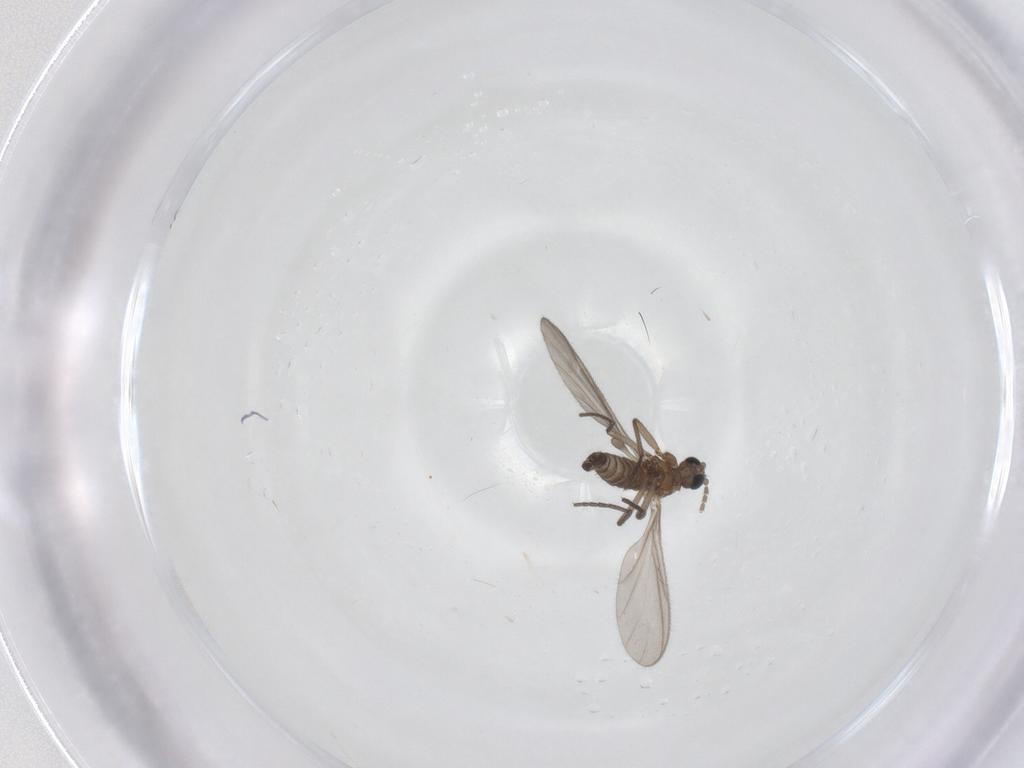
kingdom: Animalia
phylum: Arthropoda
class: Insecta
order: Diptera
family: Sciaridae
